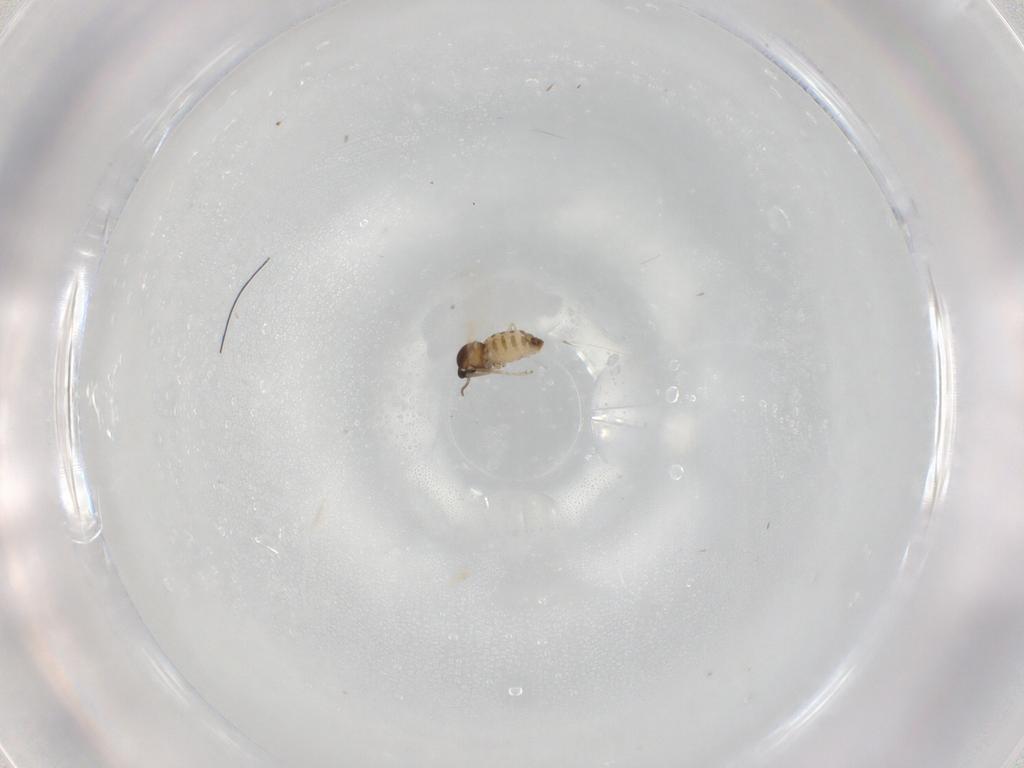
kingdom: Animalia
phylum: Arthropoda
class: Insecta
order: Diptera
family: Cecidomyiidae
